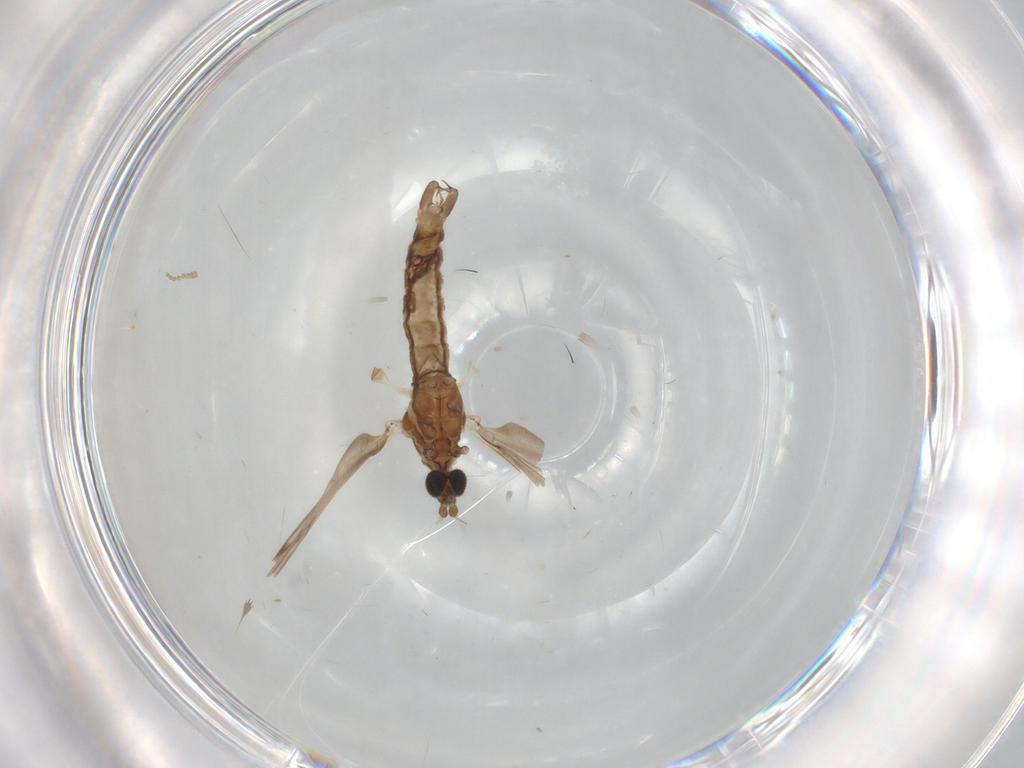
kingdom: Animalia
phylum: Arthropoda
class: Insecta
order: Diptera
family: Limoniidae
